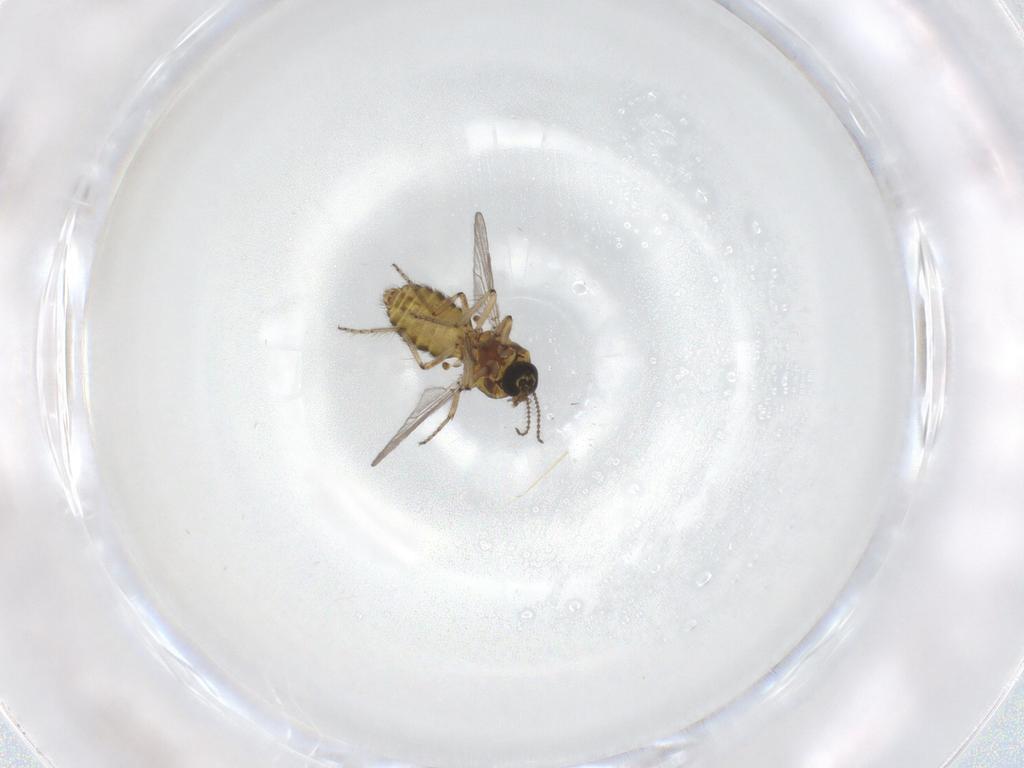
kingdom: Animalia
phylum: Arthropoda
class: Insecta
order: Diptera
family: Ceratopogonidae
